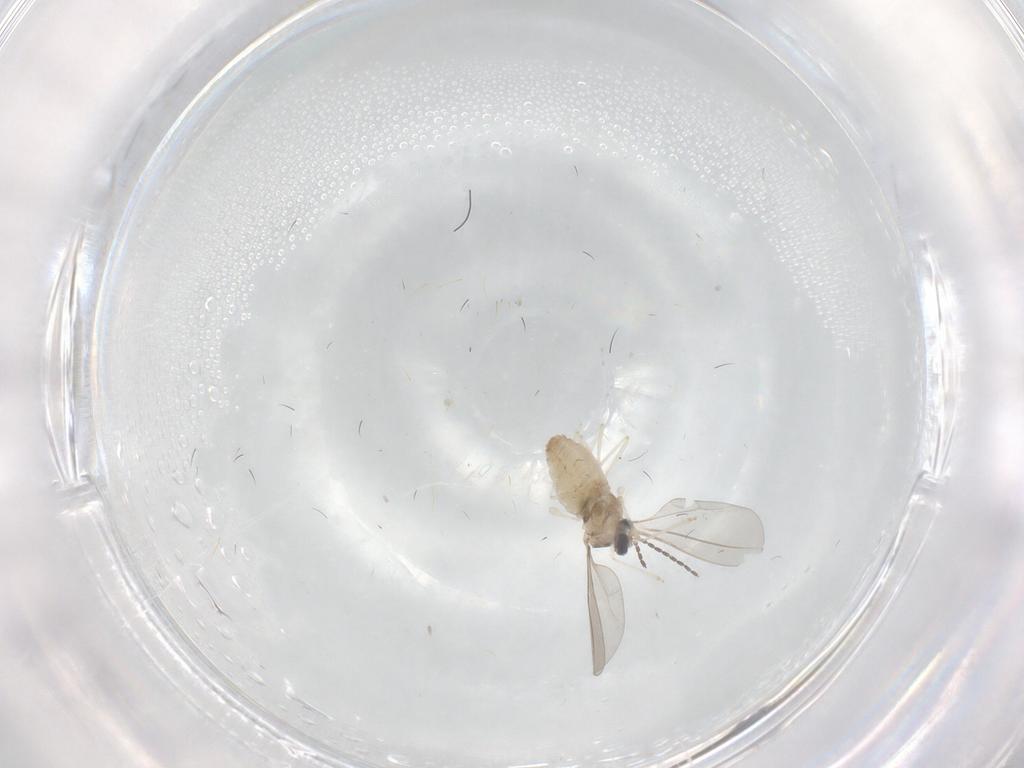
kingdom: Animalia
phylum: Arthropoda
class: Insecta
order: Diptera
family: Cecidomyiidae
